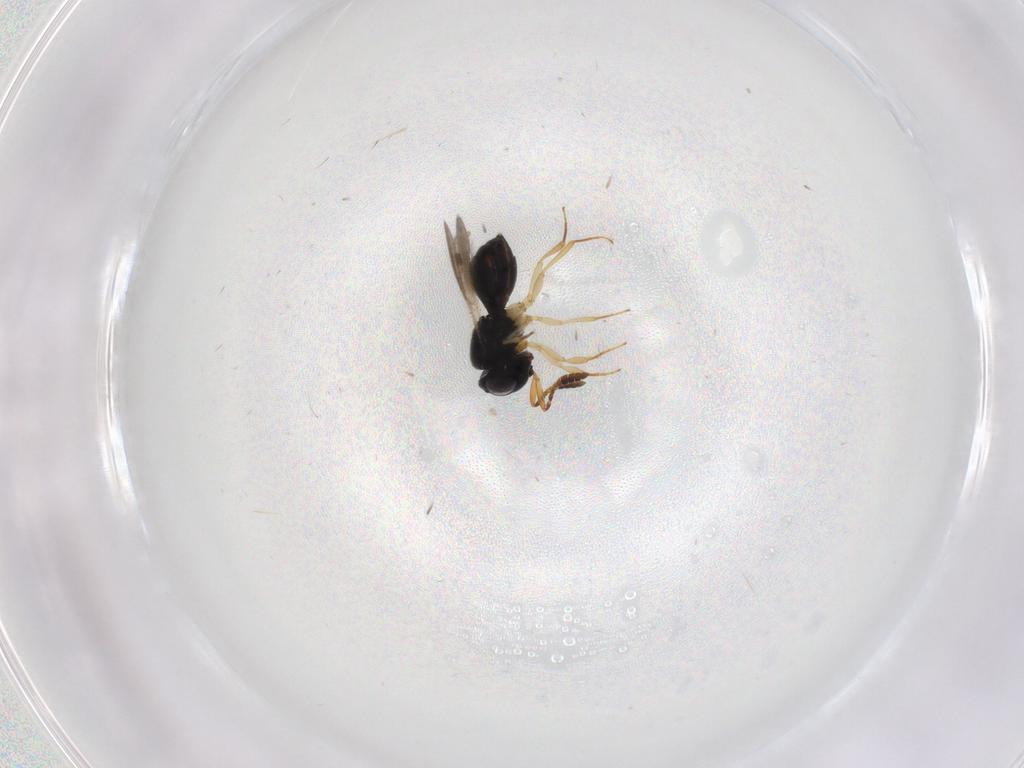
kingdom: Animalia
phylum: Arthropoda
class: Insecta
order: Hymenoptera
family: Scelionidae
